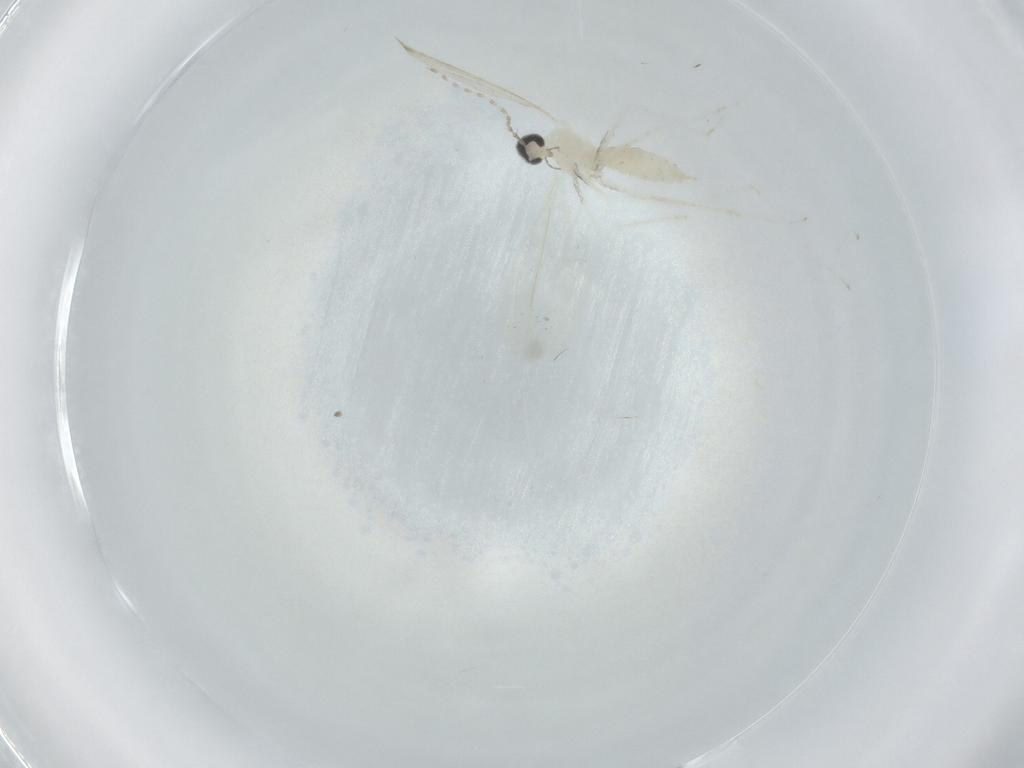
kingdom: Animalia
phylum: Arthropoda
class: Insecta
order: Diptera
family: Cecidomyiidae
